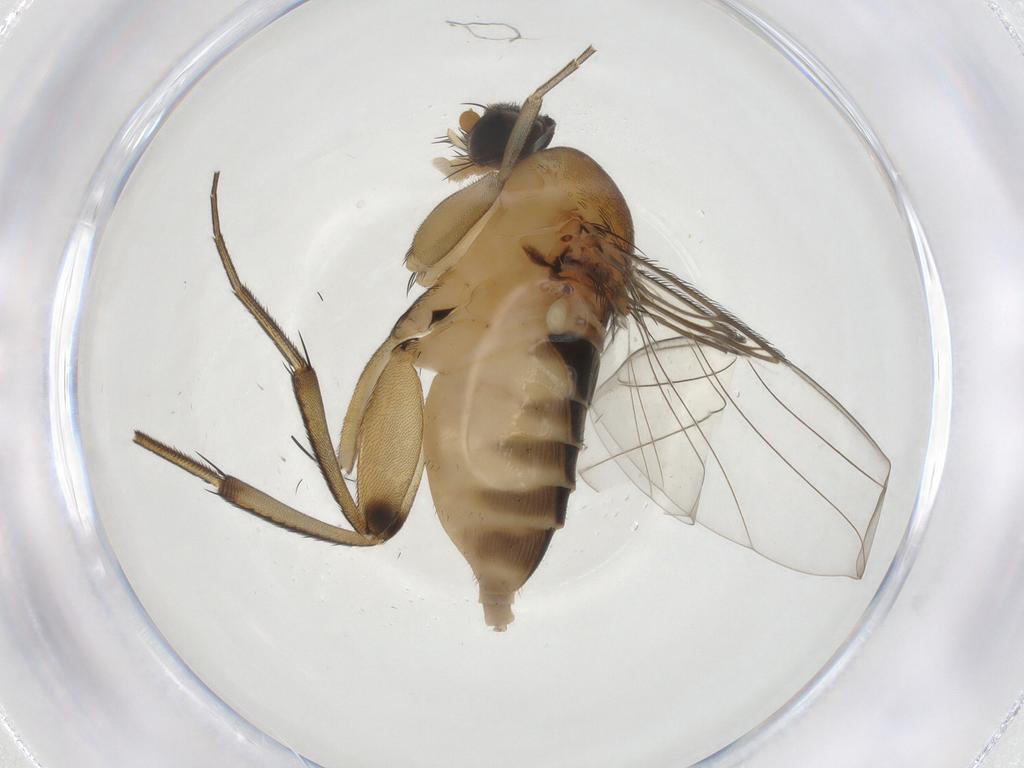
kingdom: Animalia
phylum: Arthropoda
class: Insecta
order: Diptera
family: Phoridae
